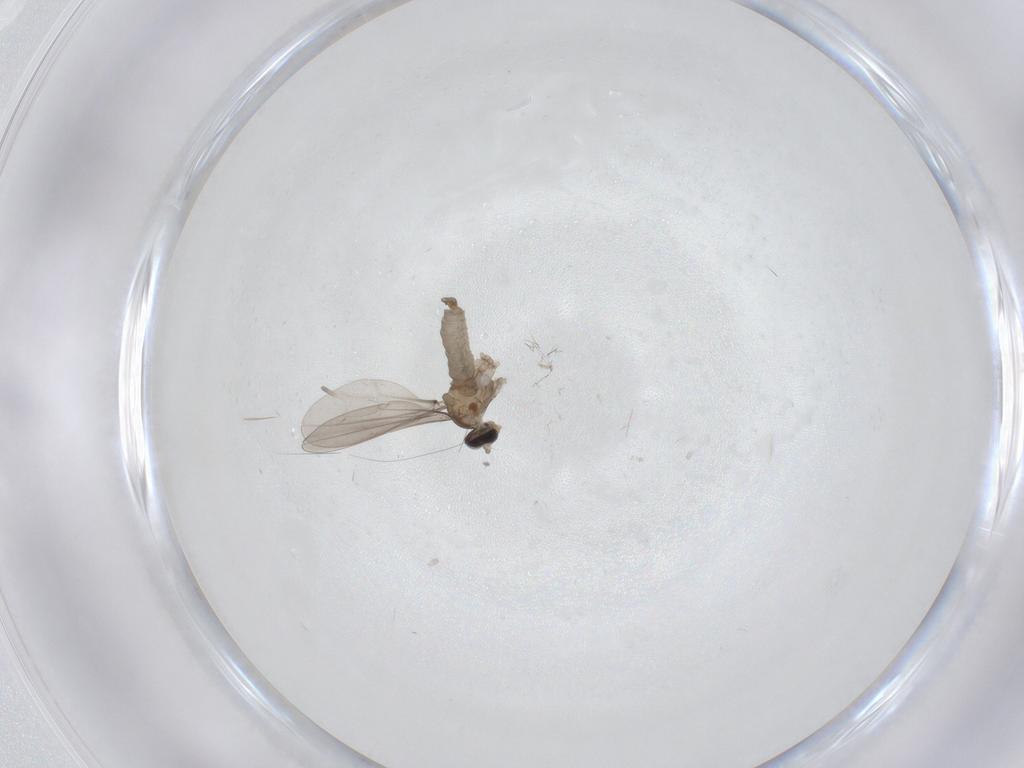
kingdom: Animalia
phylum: Arthropoda
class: Insecta
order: Diptera
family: Cecidomyiidae
